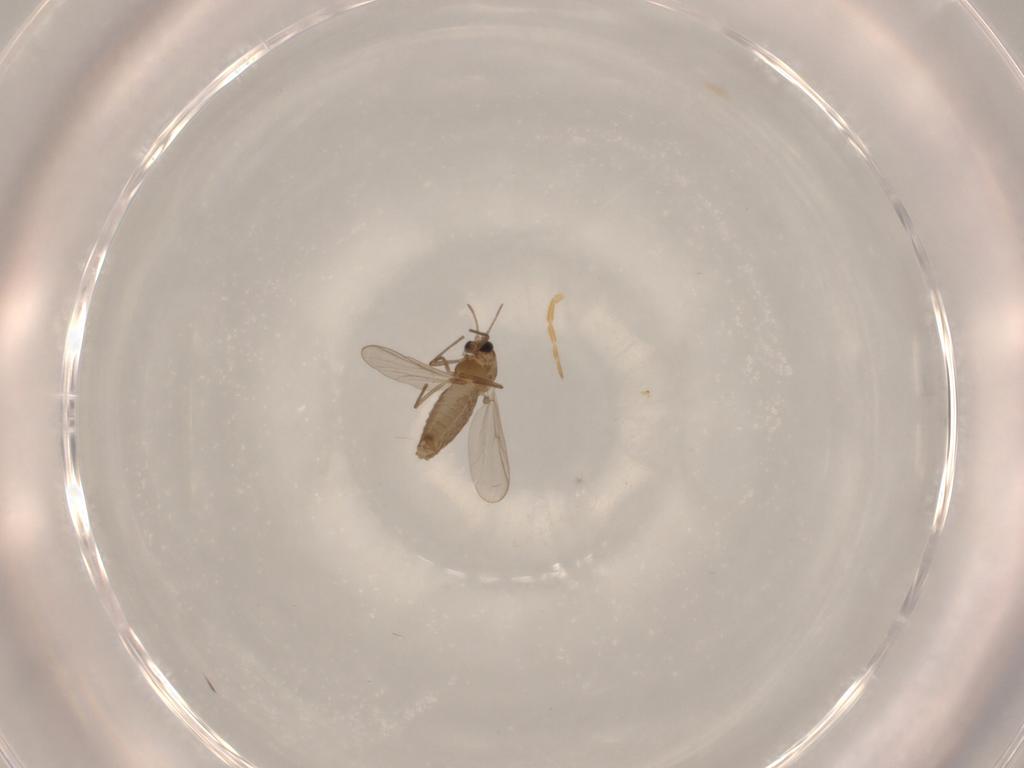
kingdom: Animalia
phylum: Arthropoda
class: Insecta
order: Diptera
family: Chironomidae
